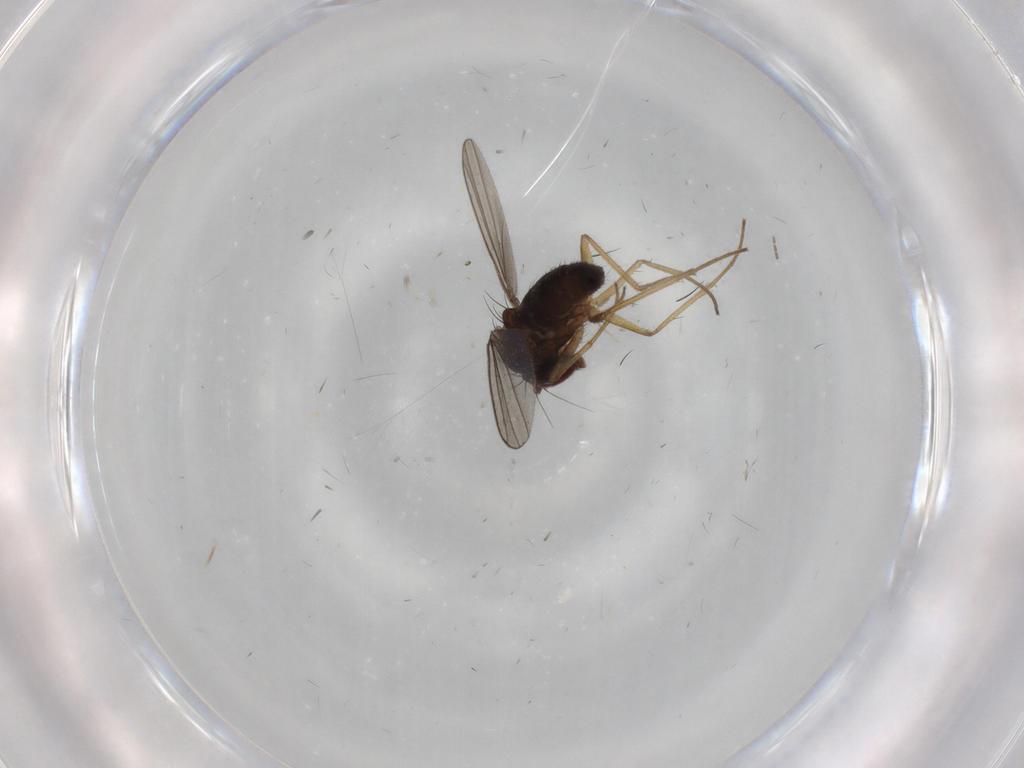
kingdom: Animalia
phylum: Arthropoda
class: Insecta
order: Diptera
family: Dolichopodidae
